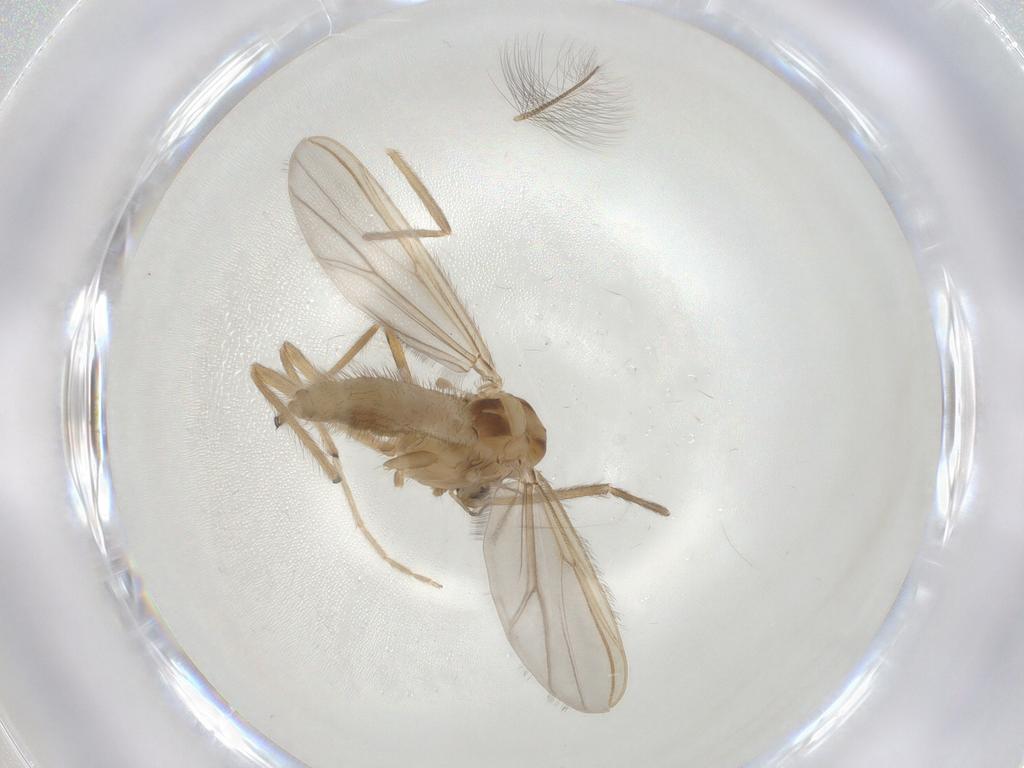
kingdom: Animalia
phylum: Arthropoda
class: Insecta
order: Diptera
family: Chironomidae
